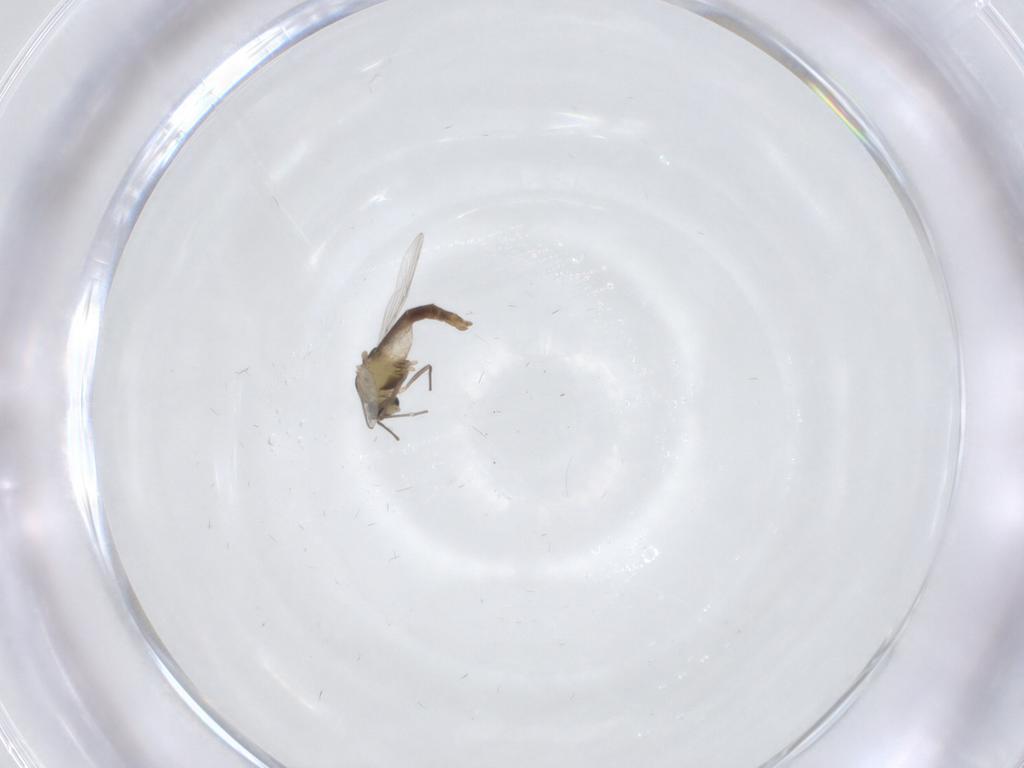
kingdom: Animalia
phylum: Arthropoda
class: Insecta
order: Diptera
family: Chironomidae
